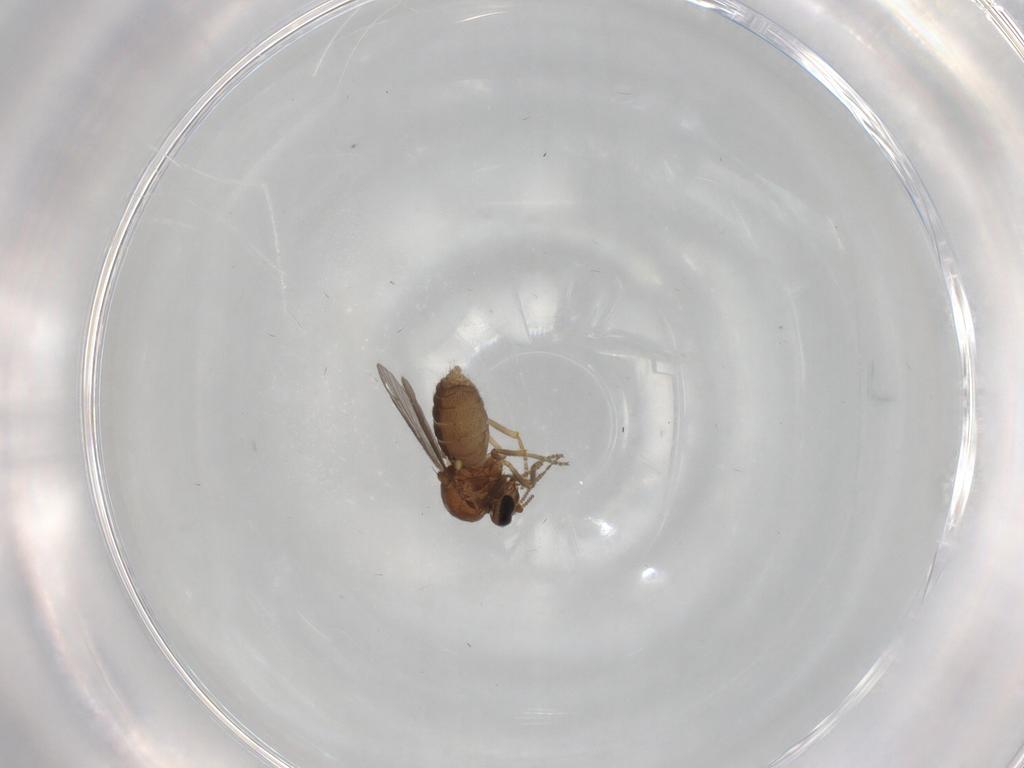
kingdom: Animalia
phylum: Arthropoda
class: Insecta
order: Diptera
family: Ceratopogonidae
